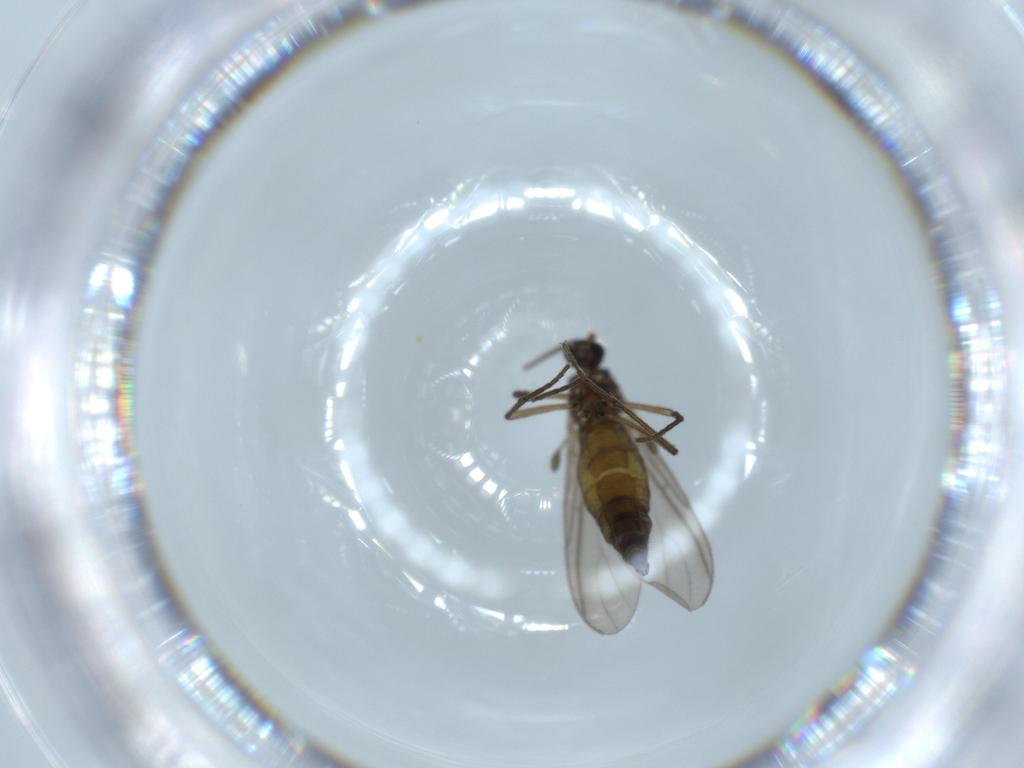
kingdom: Animalia
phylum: Arthropoda
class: Insecta
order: Diptera
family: Sciaridae
